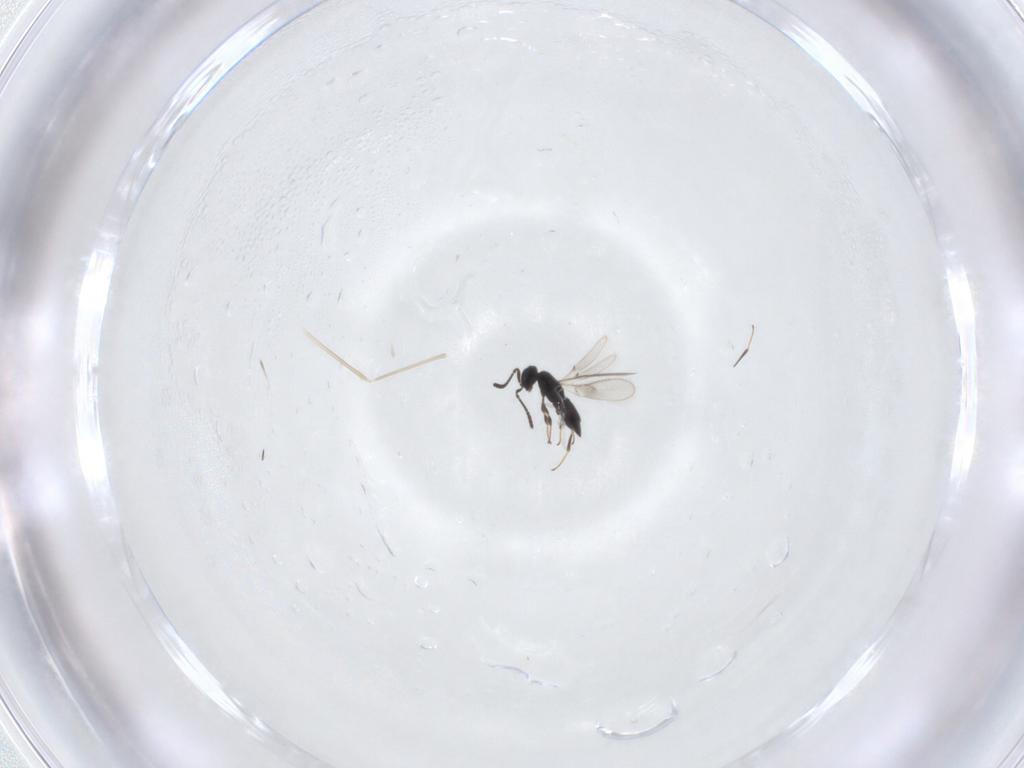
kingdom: Animalia
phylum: Arthropoda
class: Insecta
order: Hymenoptera
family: Scelionidae
